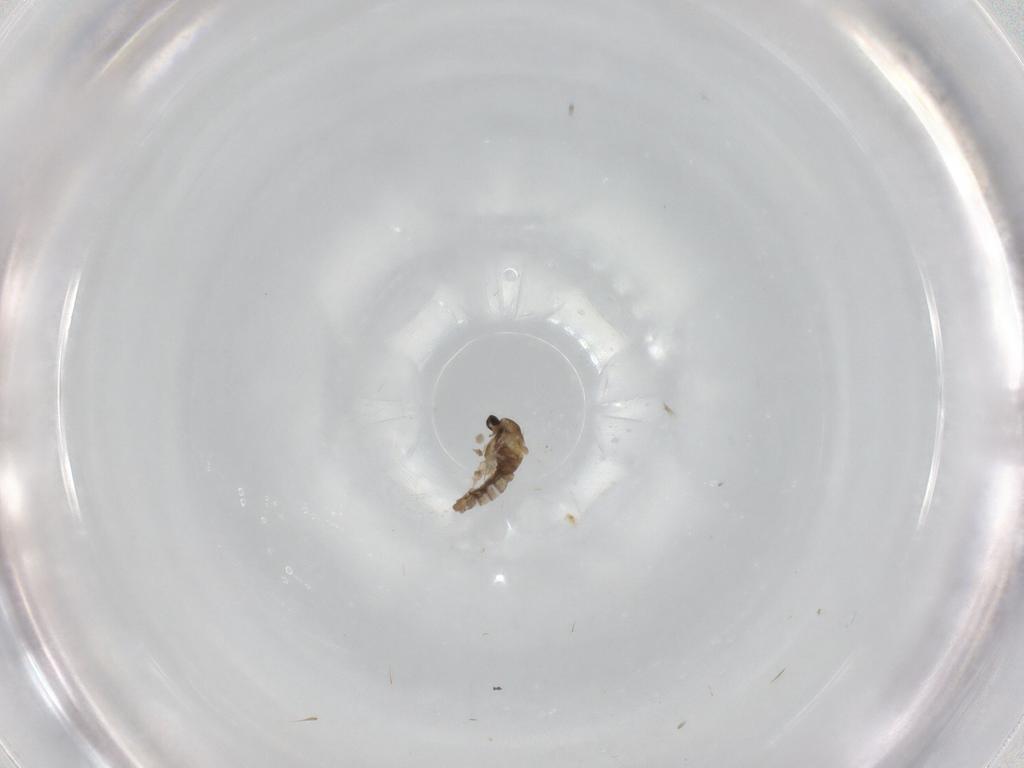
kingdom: Animalia
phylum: Arthropoda
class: Insecta
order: Diptera
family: Cecidomyiidae
